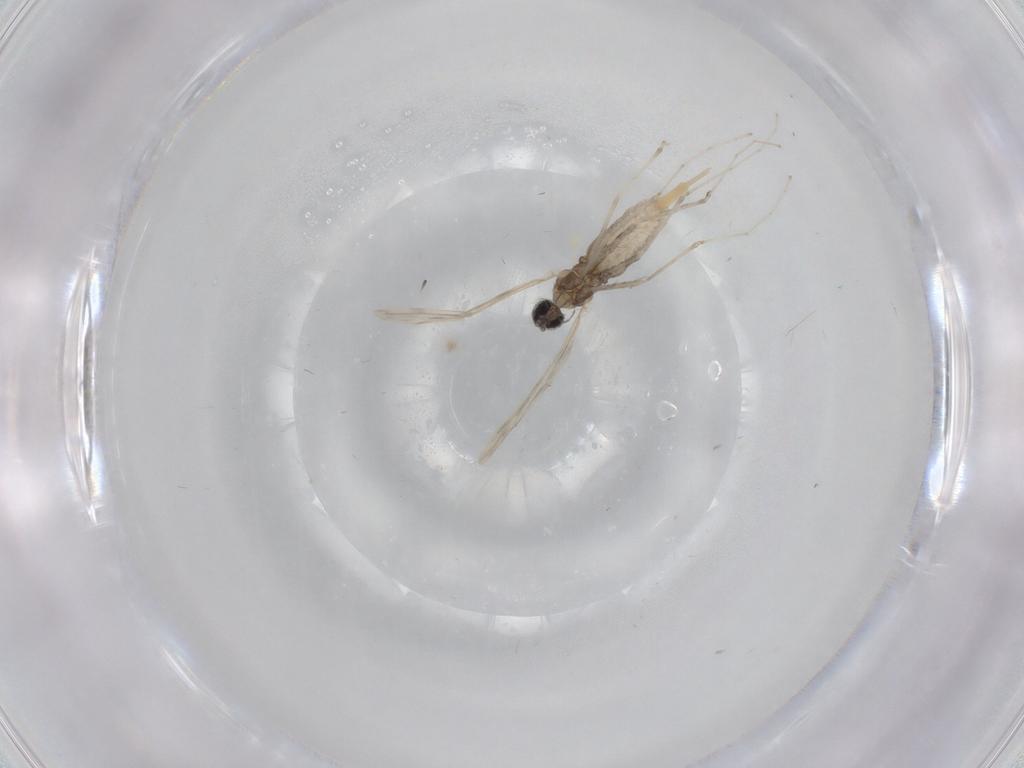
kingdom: Animalia
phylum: Arthropoda
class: Insecta
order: Diptera
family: Cecidomyiidae
